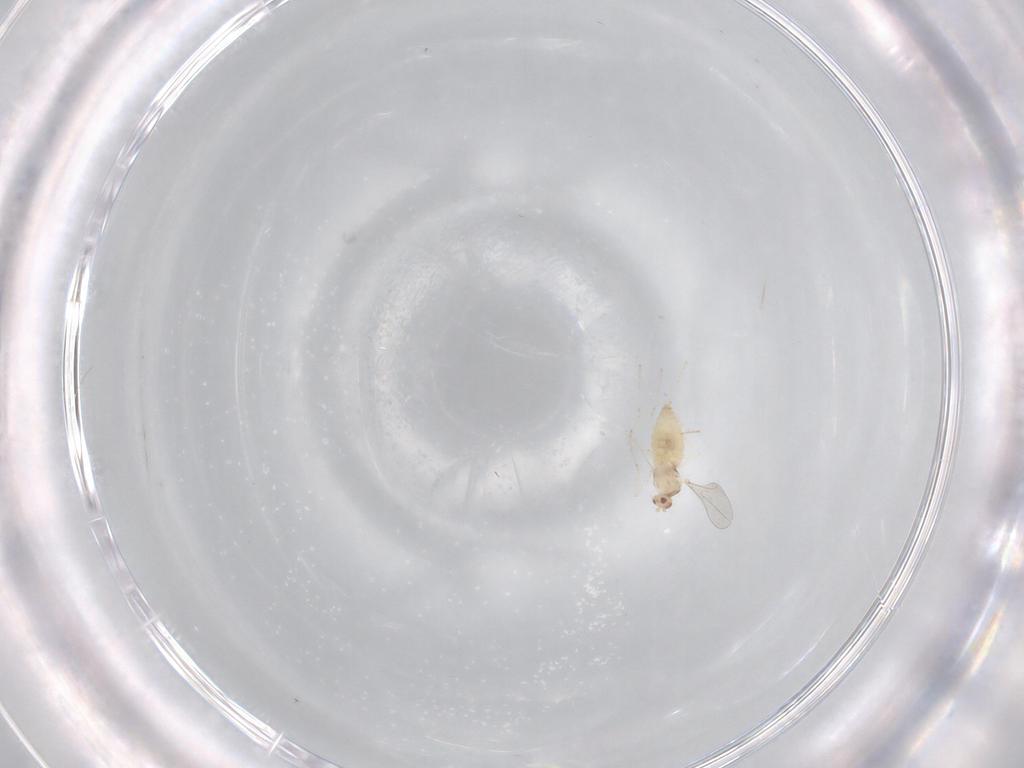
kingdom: Animalia
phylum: Arthropoda
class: Insecta
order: Diptera
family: Cecidomyiidae
